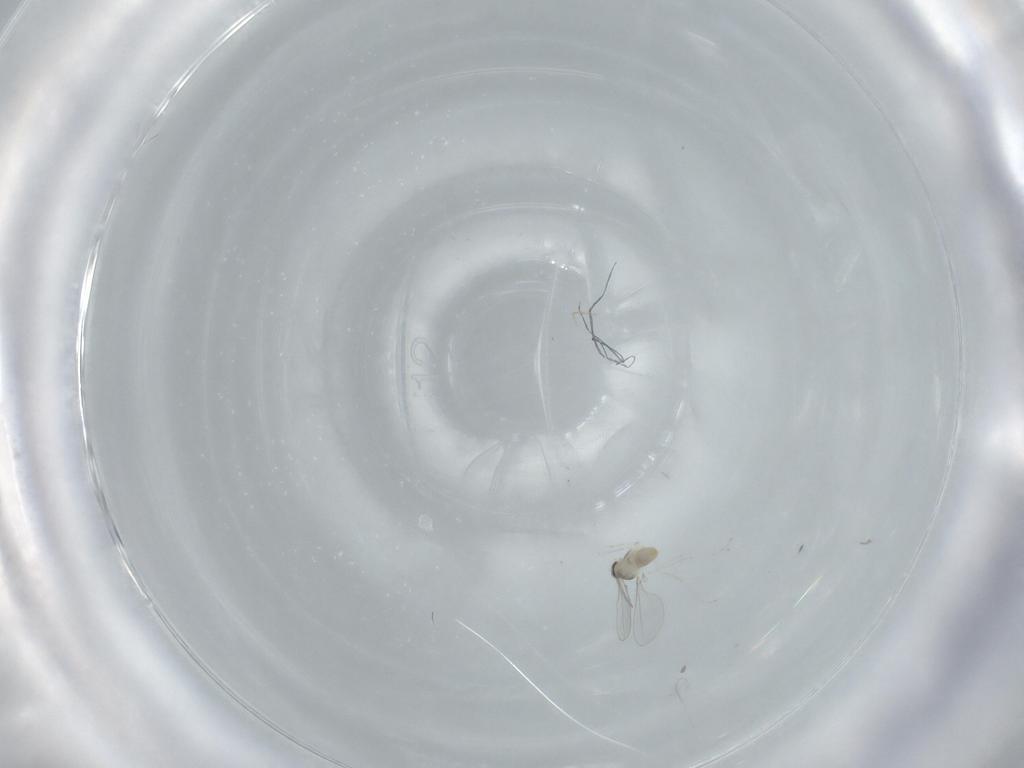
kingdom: Animalia
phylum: Arthropoda
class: Insecta
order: Diptera
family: Cecidomyiidae
